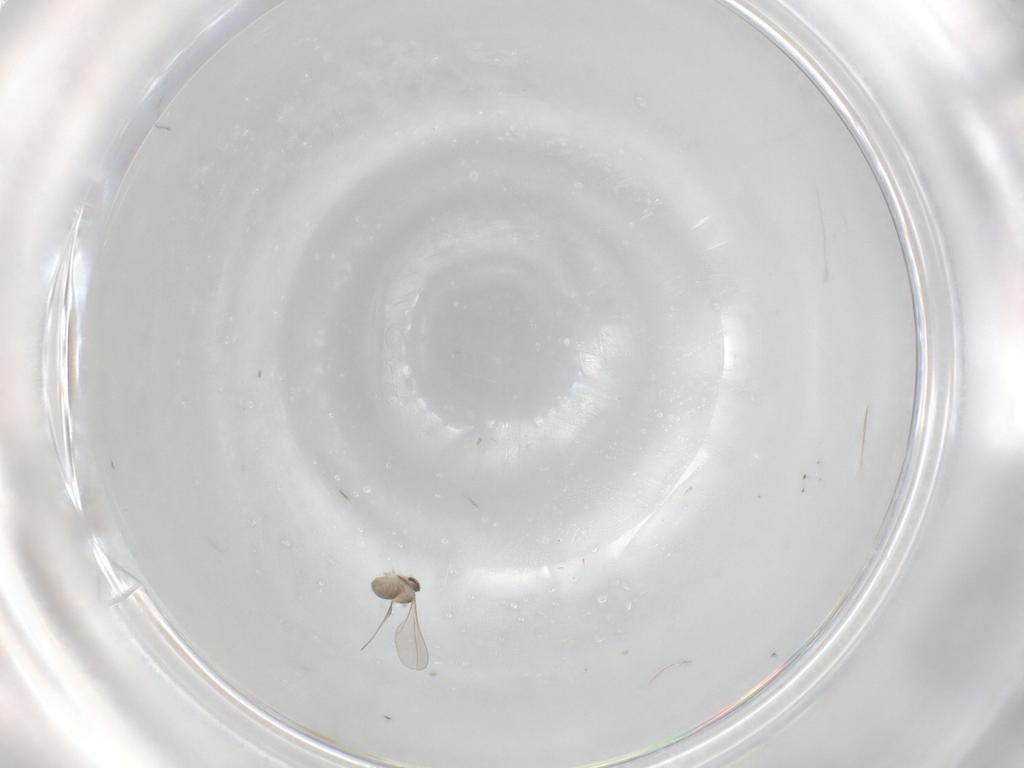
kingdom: Animalia
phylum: Arthropoda
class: Insecta
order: Diptera
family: Cecidomyiidae
